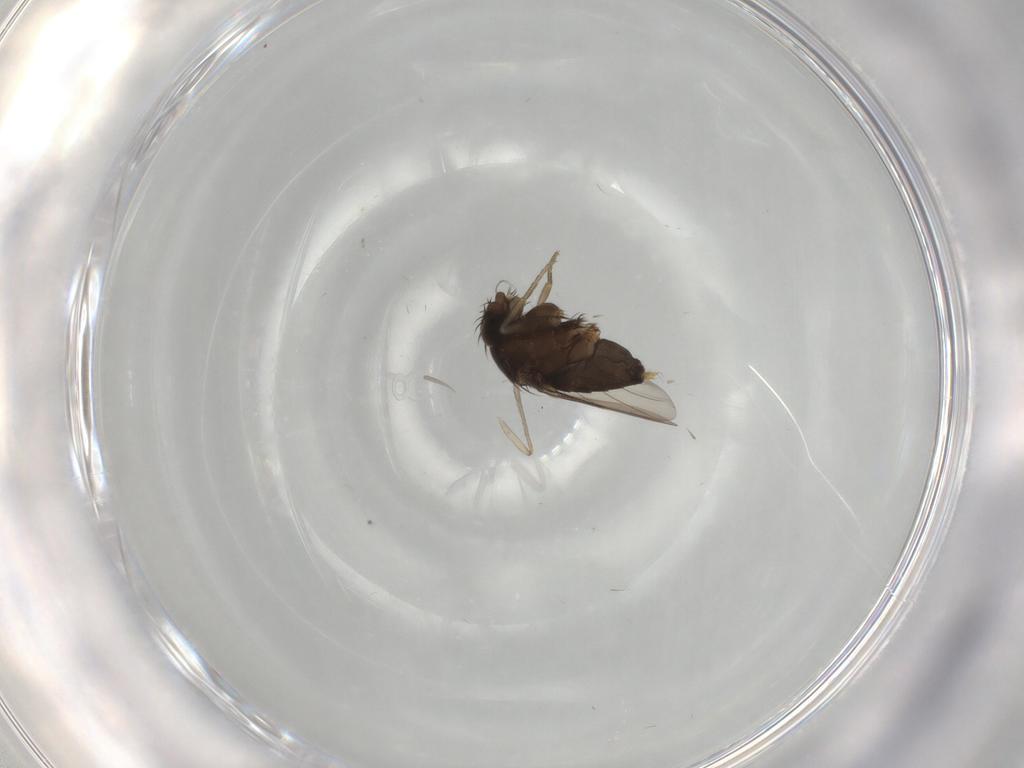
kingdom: Animalia
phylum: Arthropoda
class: Insecta
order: Diptera
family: Phoridae
